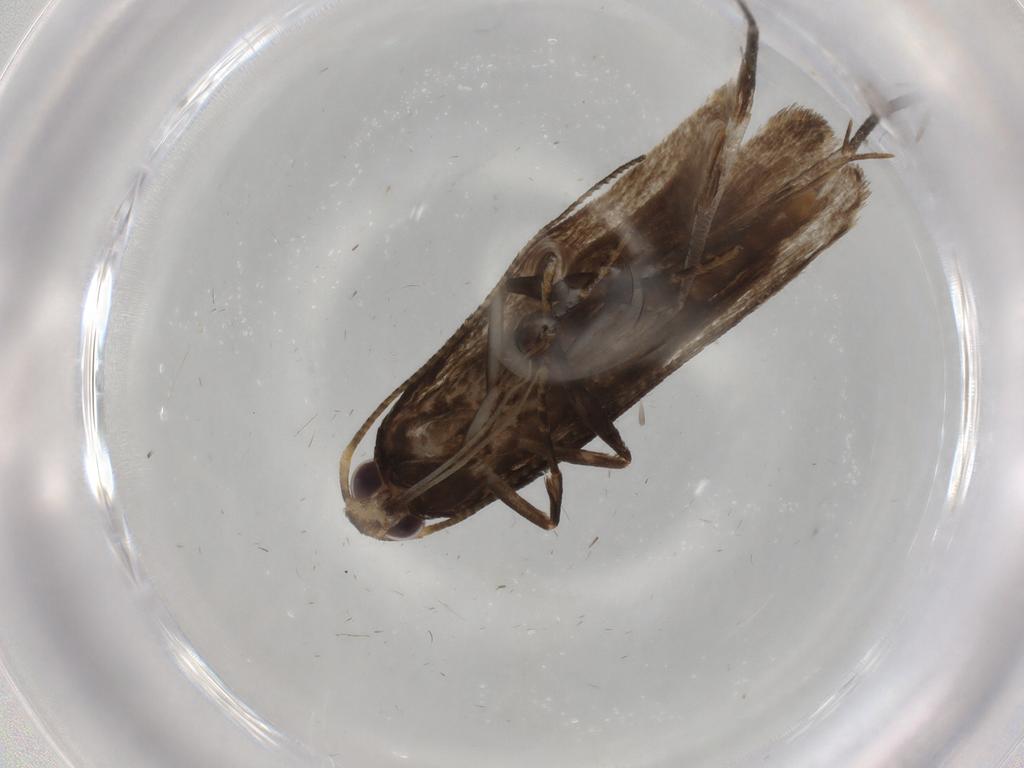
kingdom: Animalia
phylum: Arthropoda
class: Insecta
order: Lepidoptera
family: Gelechiidae
